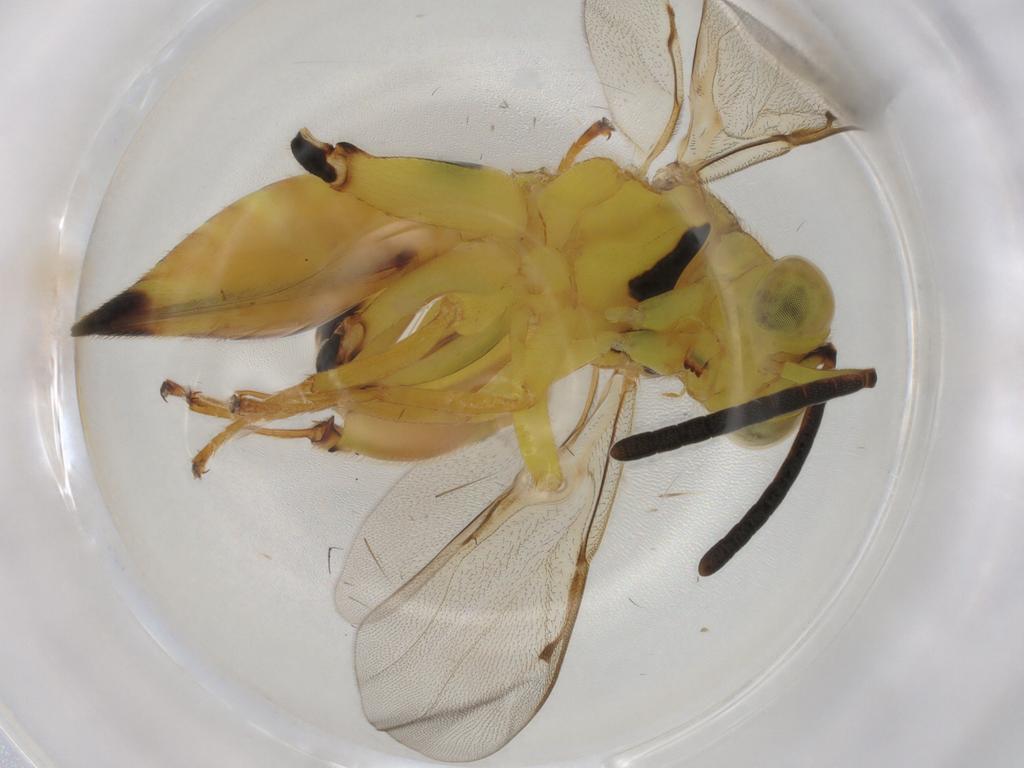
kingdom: Animalia
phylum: Arthropoda
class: Insecta
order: Hymenoptera
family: Chalcididae
